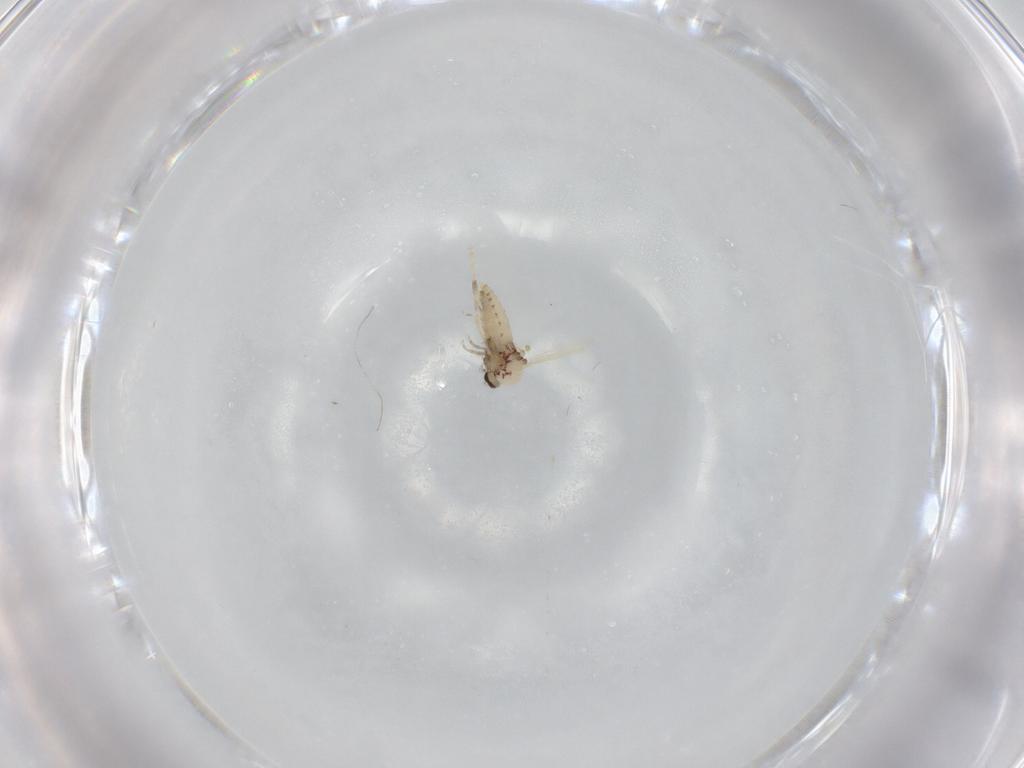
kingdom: Animalia
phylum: Arthropoda
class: Insecta
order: Diptera
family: Ceratopogonidae
